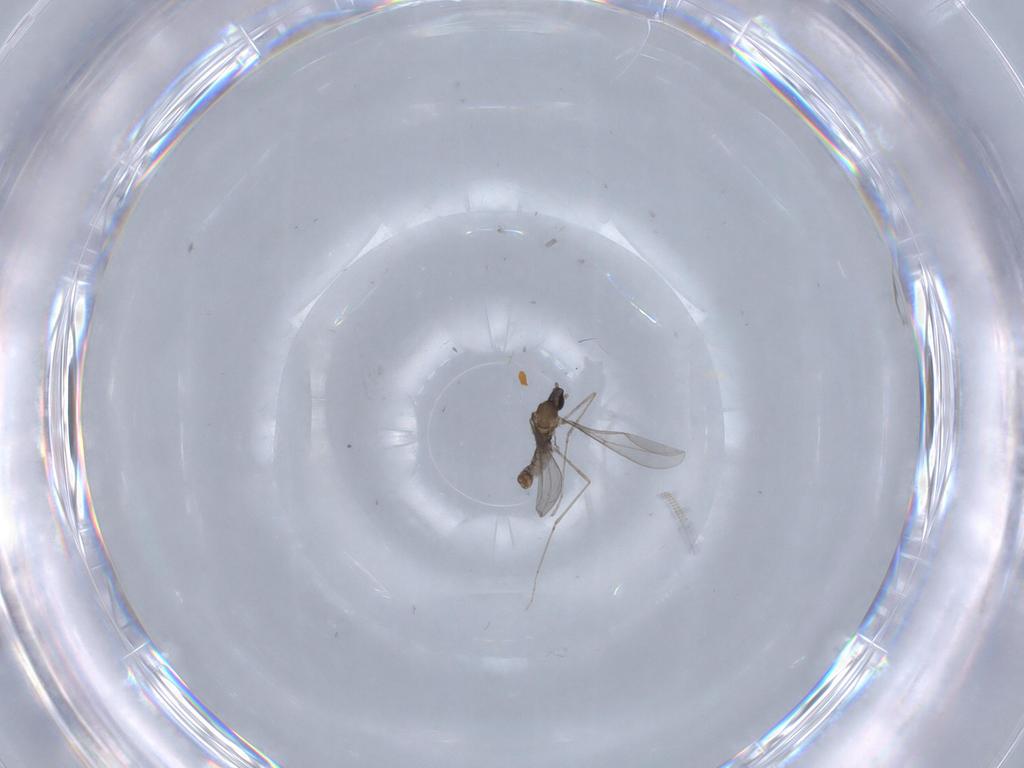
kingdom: Animalia
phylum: Arthropoda
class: Insecta
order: Diptera
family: Cecidomyiidae
